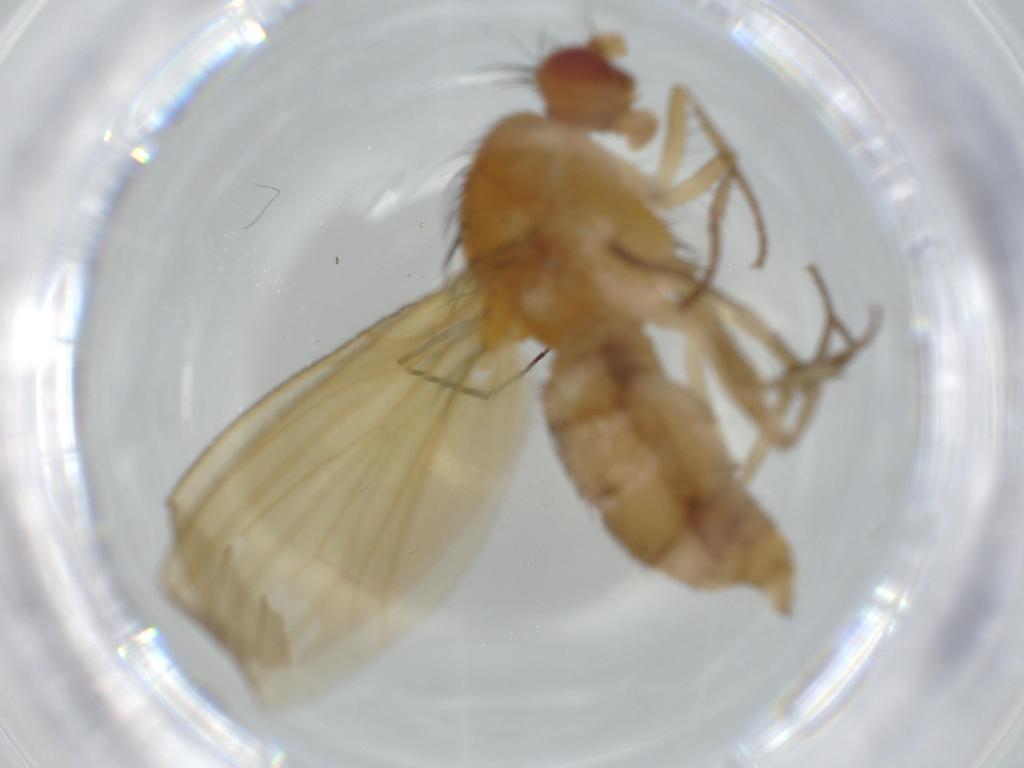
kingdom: Animalia
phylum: Arthropoda
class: Insecta
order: Diptera
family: Hybotidae
